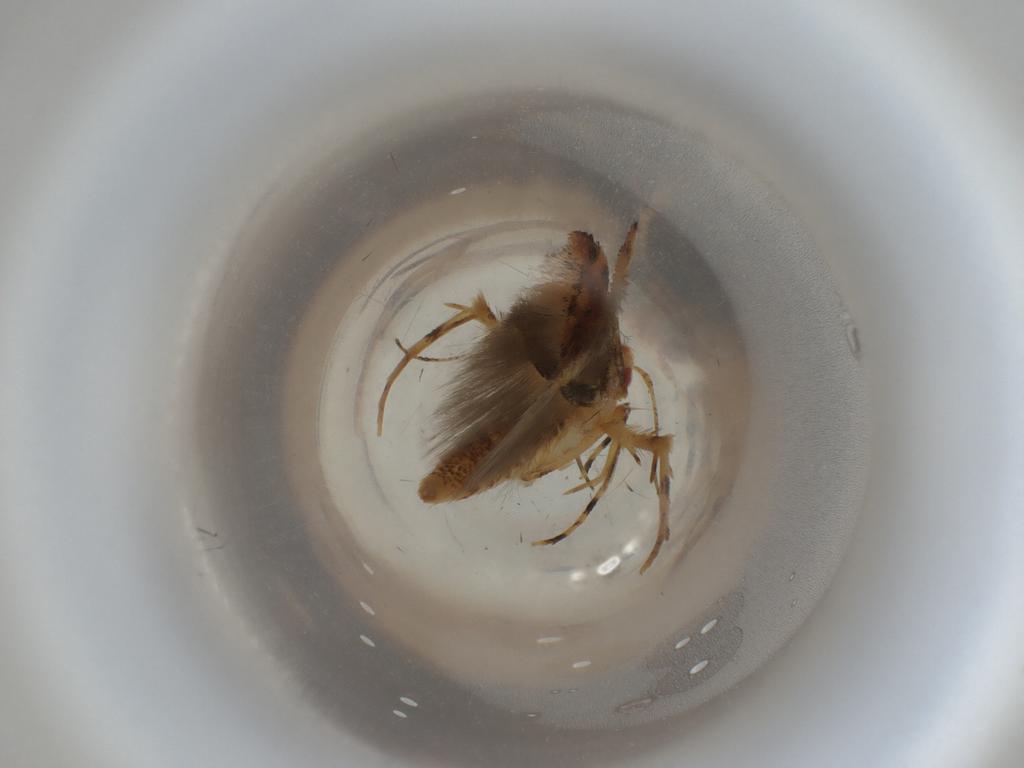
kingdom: Animalia
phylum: Arthropoda
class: Insecta
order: Lepidoptera
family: Cosmopterigidae
